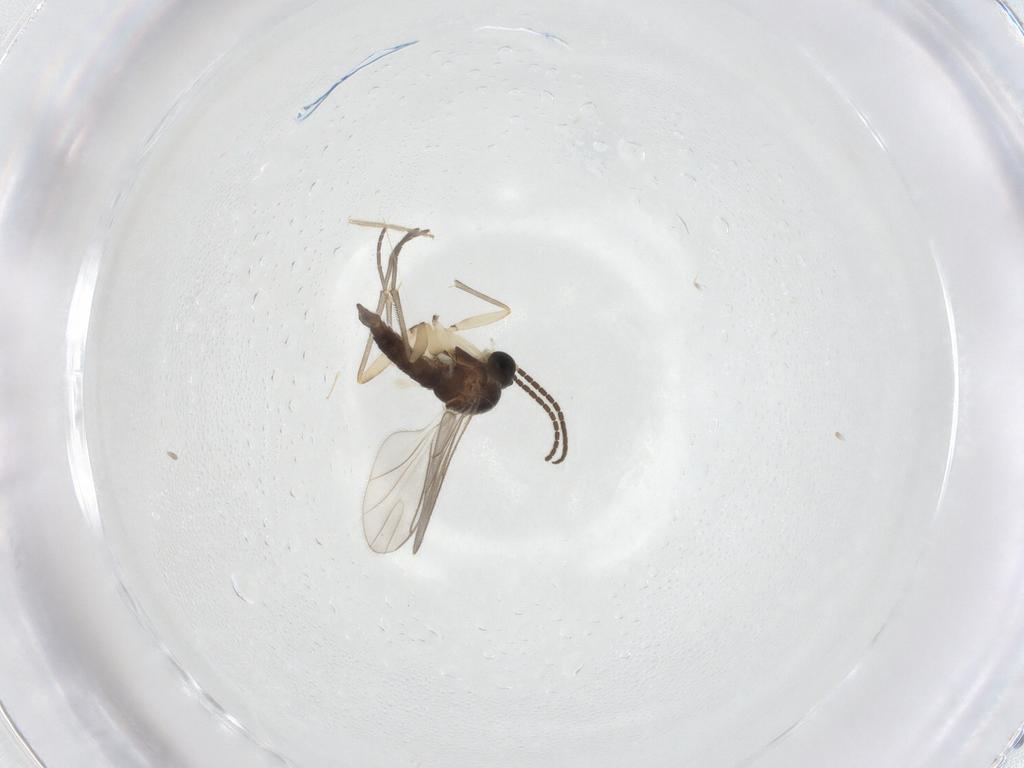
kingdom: Animalia
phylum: Arthropoda
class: Insecta
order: Diptera
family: Sciaridae
